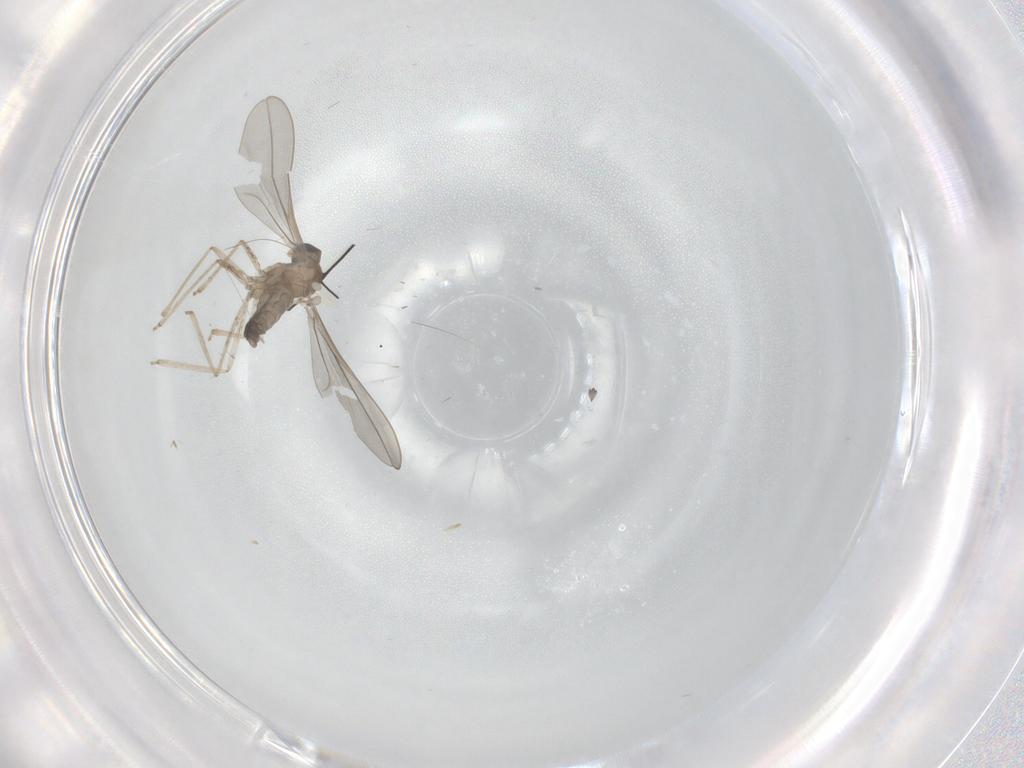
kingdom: Animalia
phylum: Arthropoda
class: Insecta
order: Diptera
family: Cecidomyiidae
